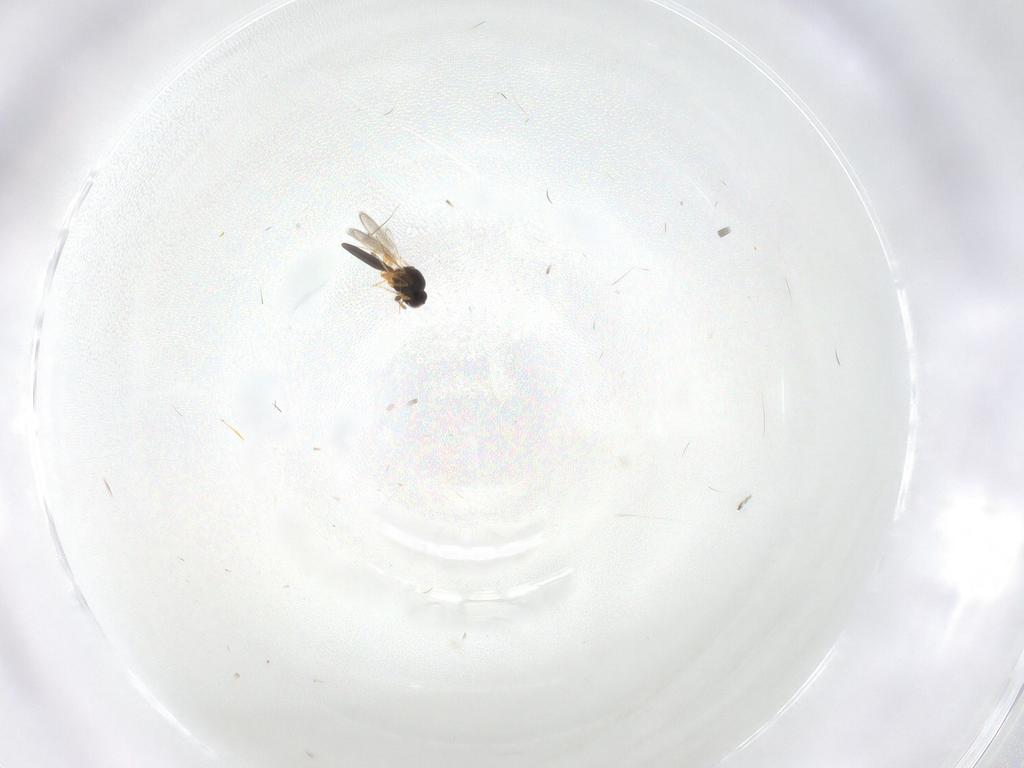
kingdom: Animalia
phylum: Arthropoda
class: Insecta
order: Hymenoptera
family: Platygastridae
